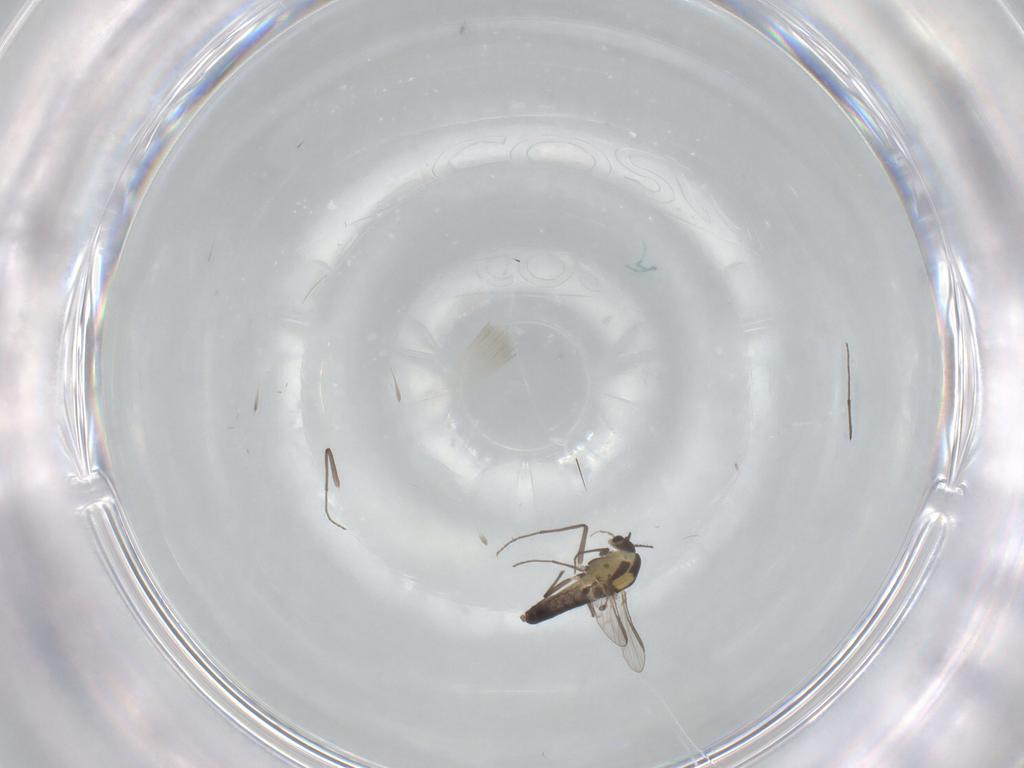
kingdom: Animalia
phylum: Arthropoda
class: Insecta
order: Diptera
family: Chironomidae
